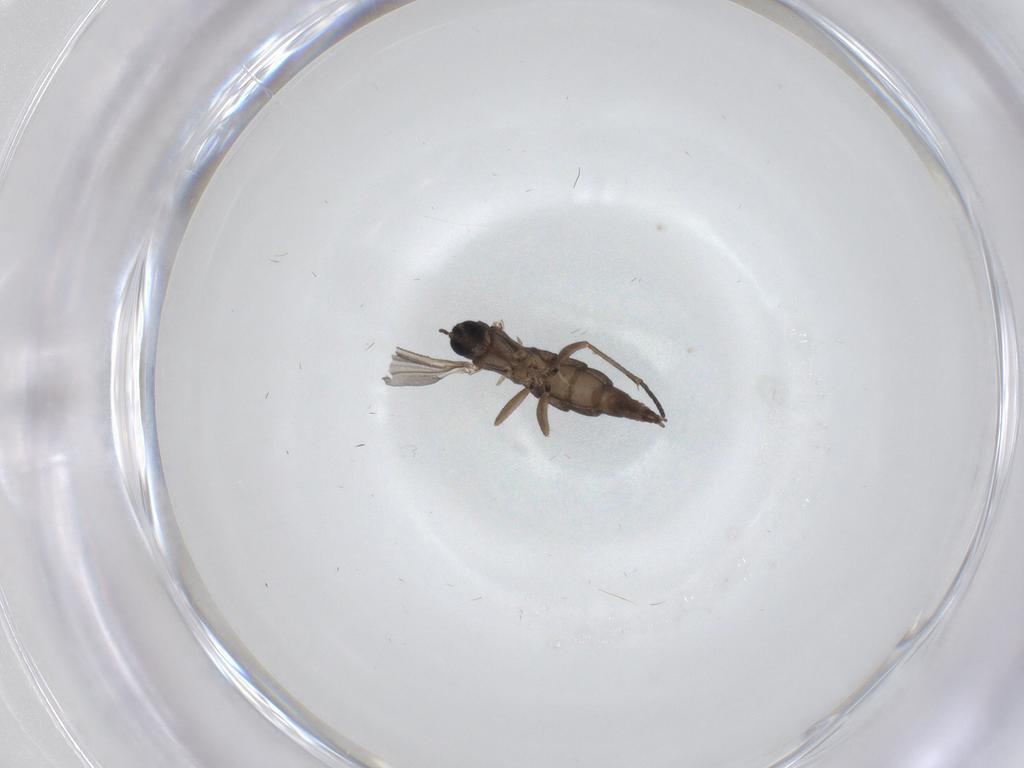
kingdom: Animalia
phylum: Arthropoda
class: Insecta
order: Diptera
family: Sciaridae
